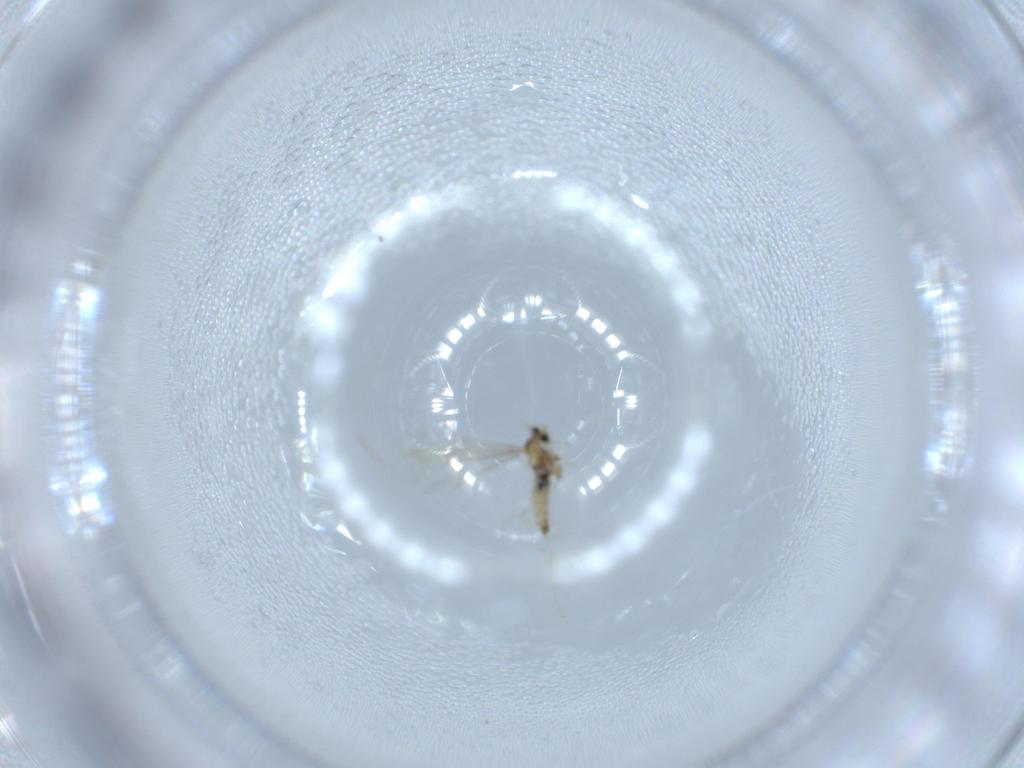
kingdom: Animalia
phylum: Arthropoda
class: Insecta
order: Diptera
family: Cecidomyiidae
